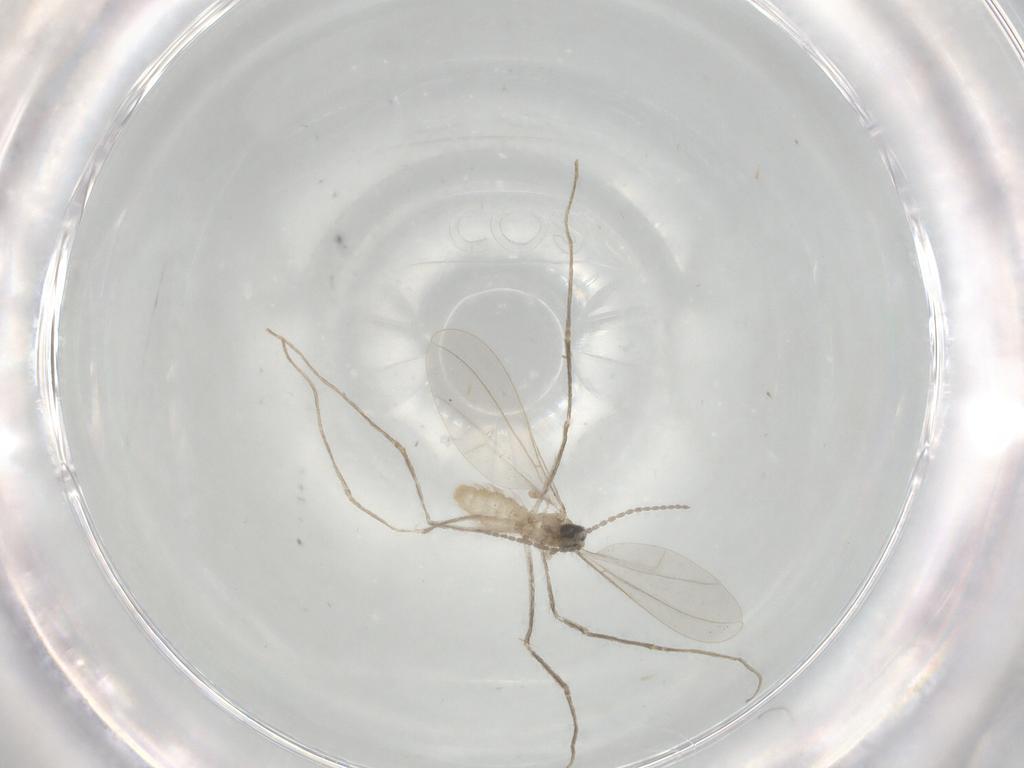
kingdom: Animalia
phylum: Arthropoda
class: Insecta
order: Diptera
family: Cecidomyiidae
